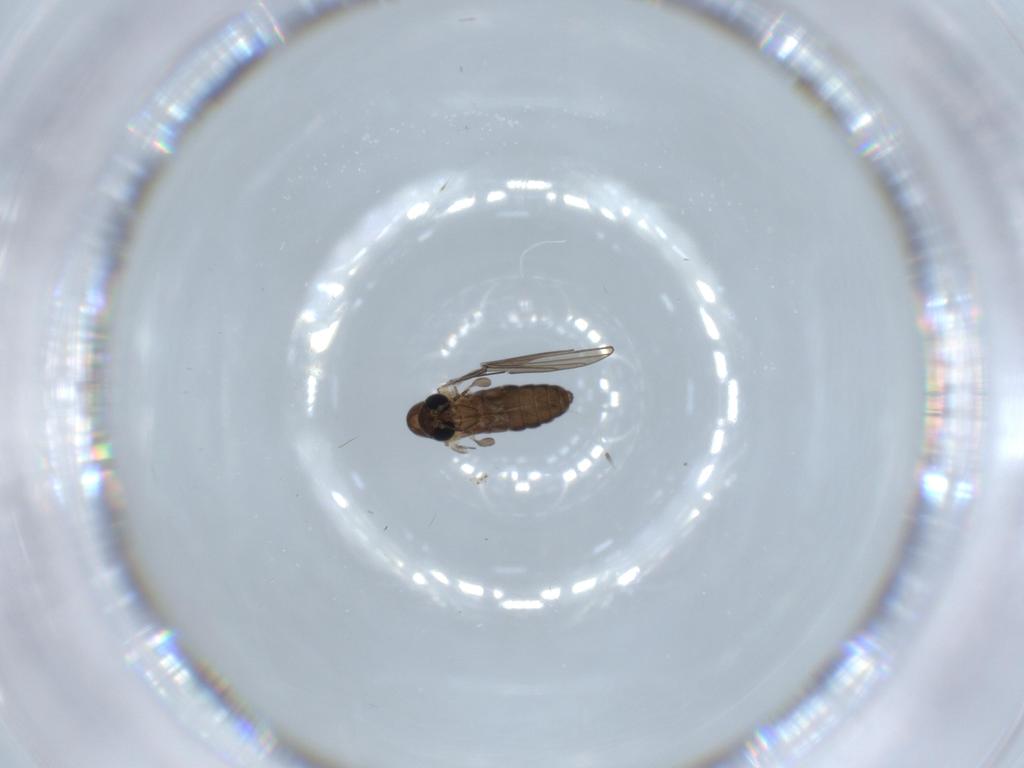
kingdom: Animalia
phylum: Arthropoda
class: Insecta
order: Diptera
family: Psychodidae
